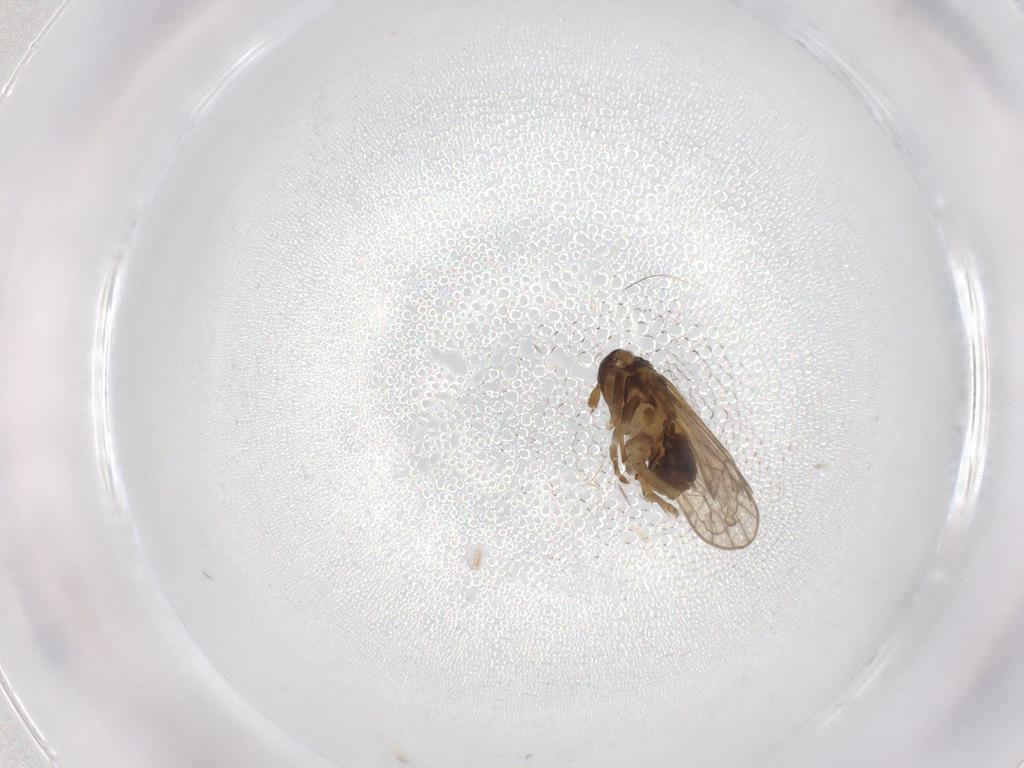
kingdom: Animalia
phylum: Arthropoda
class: Insecta
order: Hemiptera
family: Delphacidae
